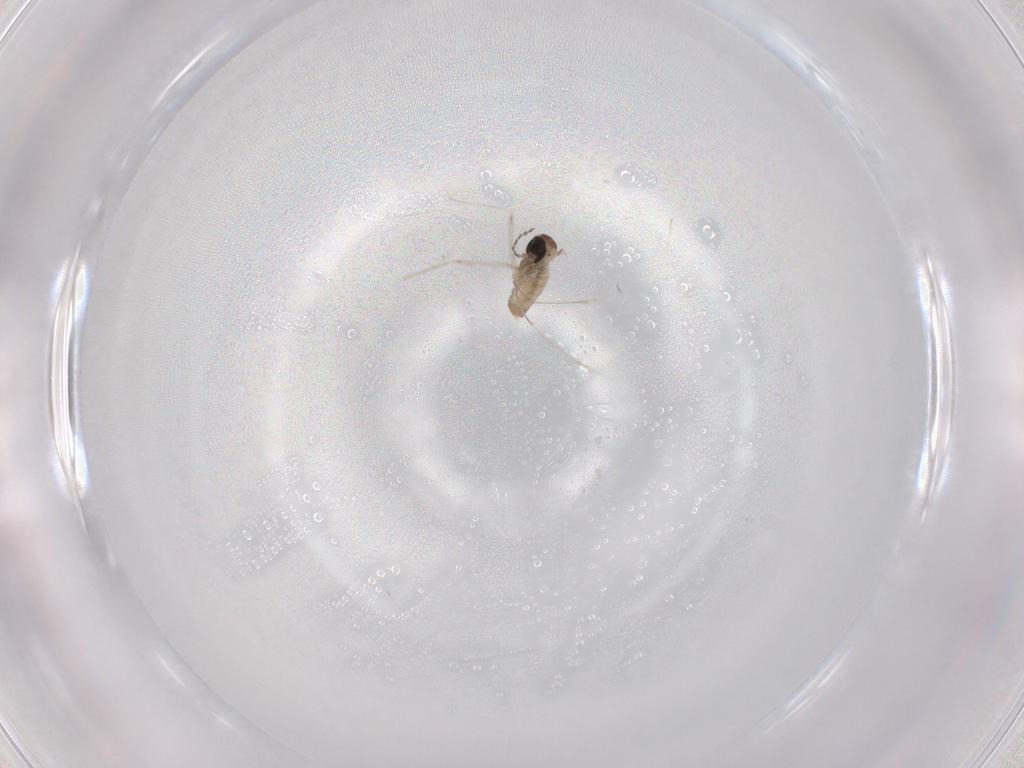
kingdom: Animalia
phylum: Arthropoda
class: Insecta
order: Diptera
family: Cecidomyiidae
